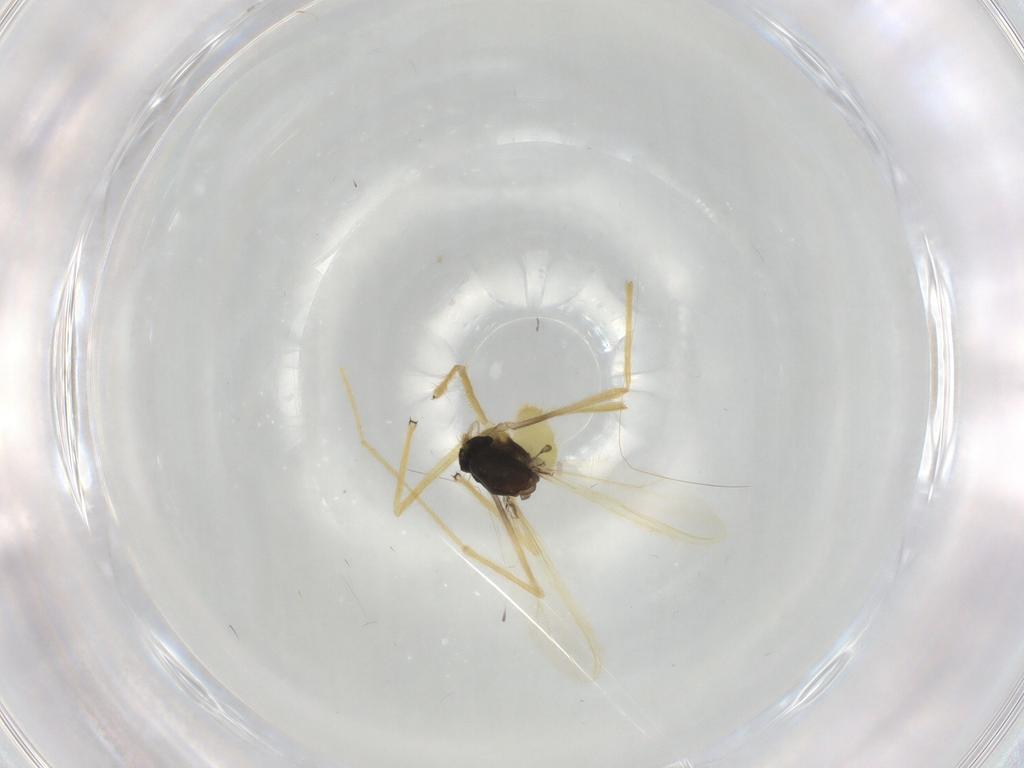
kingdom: Animalia
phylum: Arthropoda
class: Insecta
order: Diptera
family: Chironomidae
